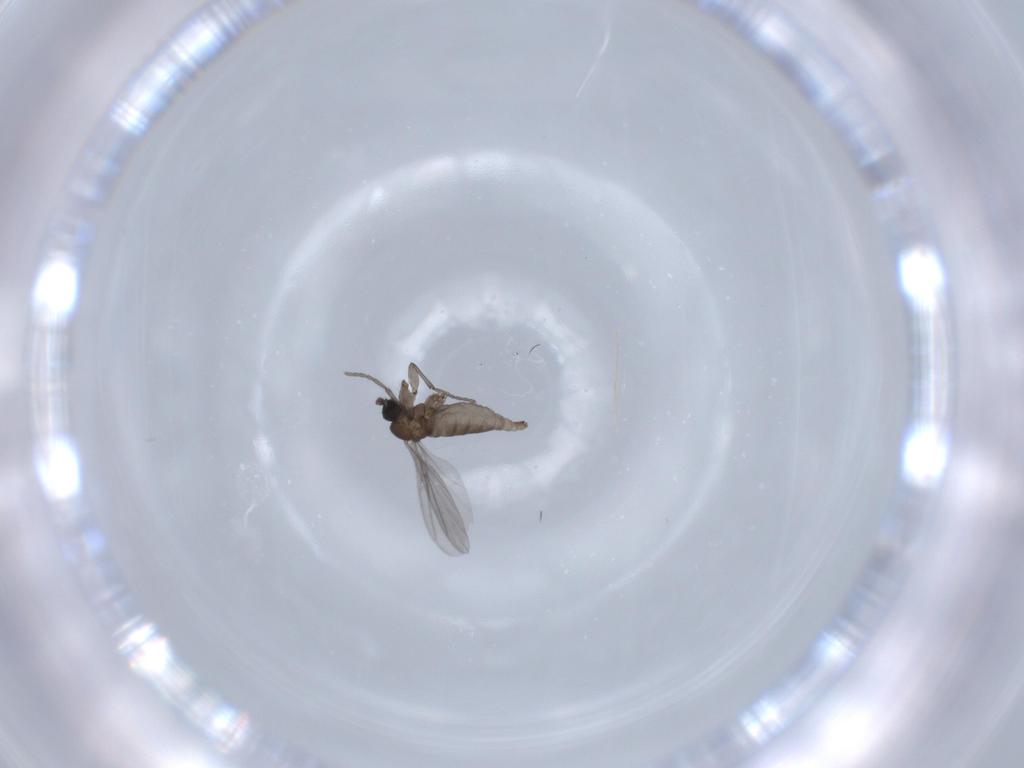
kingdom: Animalia
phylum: Arthropoda
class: Insecta
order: Diptera
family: Sciaridae
